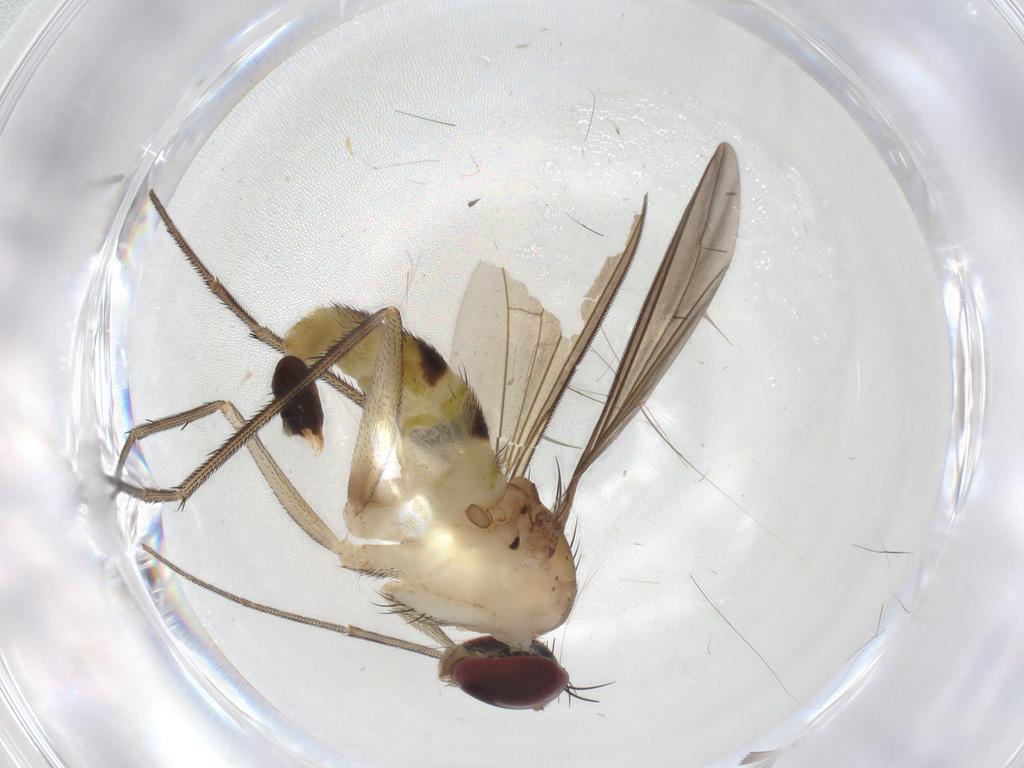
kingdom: Animalia
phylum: Arthropoda
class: Insecta
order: Diptera
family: Dolichopodidae
